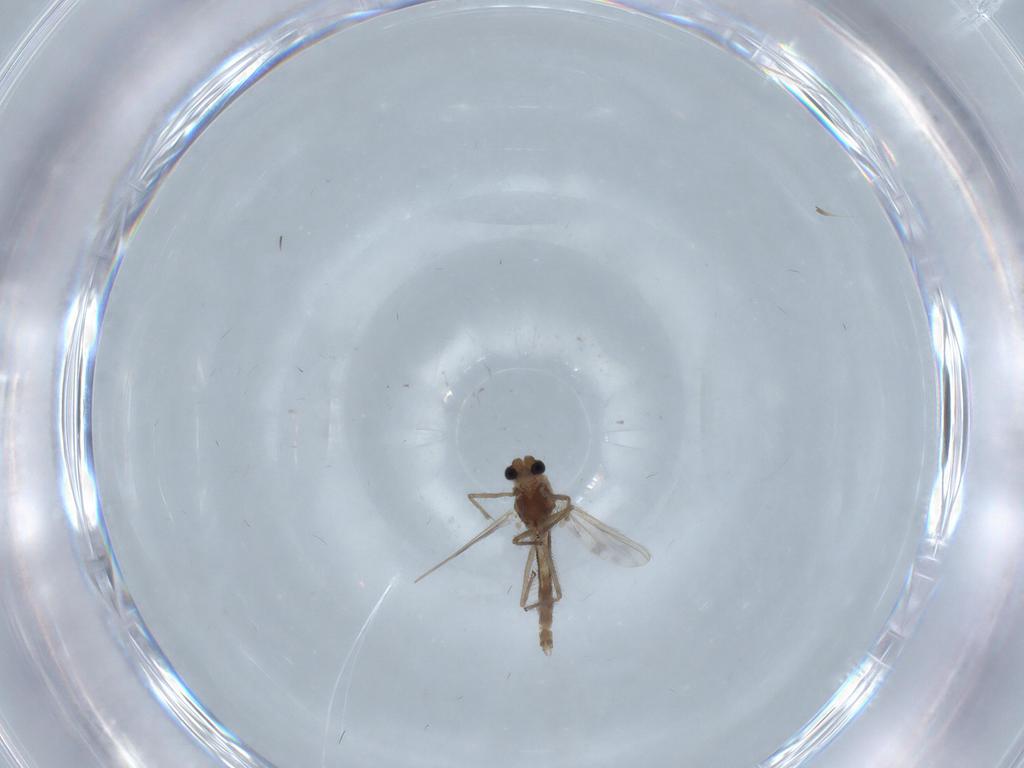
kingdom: Animalia
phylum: Arthropoda
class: Insecta
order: Diptera
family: Chironomidae
